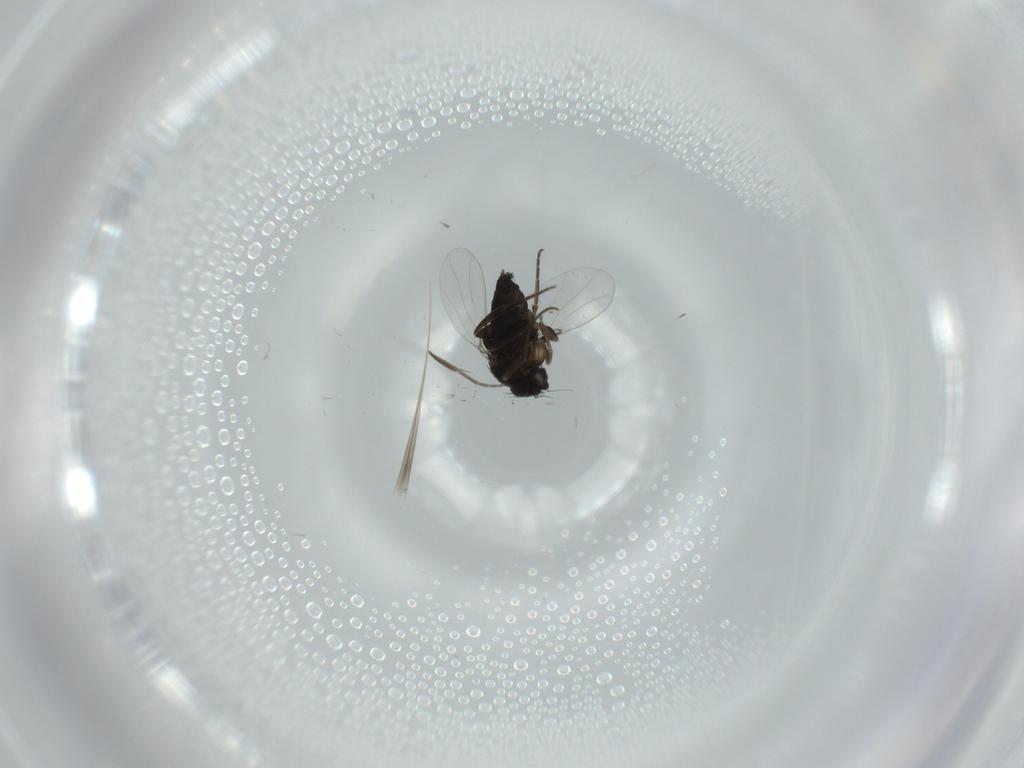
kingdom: Animalia
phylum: Arthropoda
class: Insecta
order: Diptera
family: Phoridae
